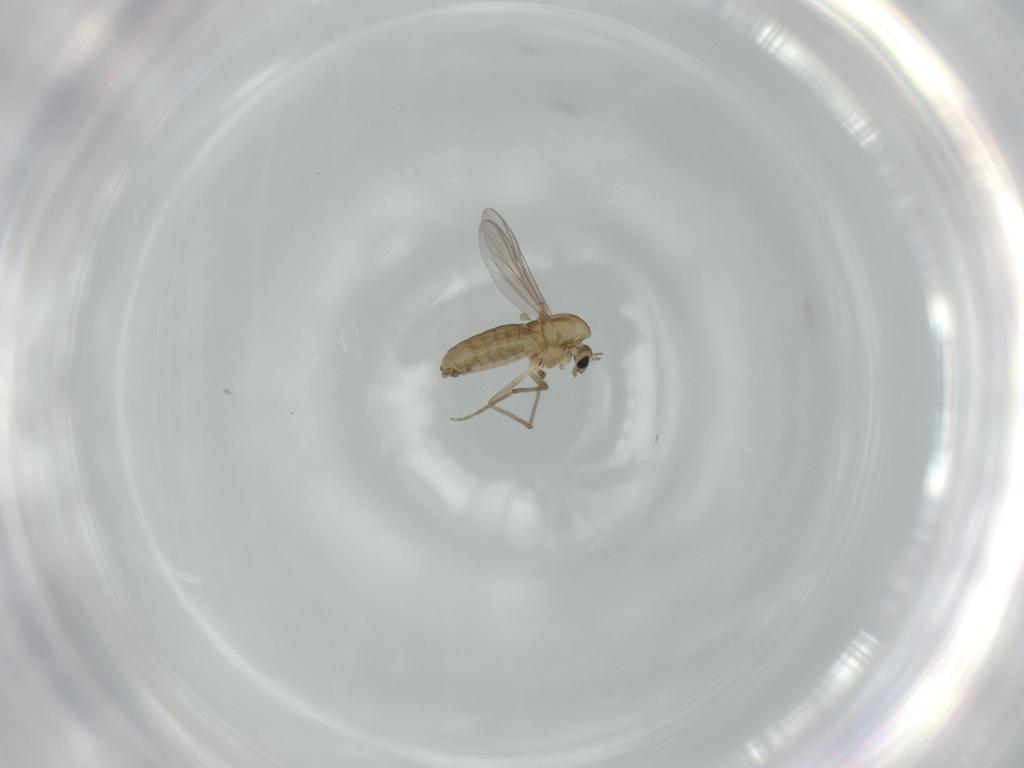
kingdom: Animalia
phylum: Arthropoda
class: Insecta
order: Diptera
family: Chironomidae
